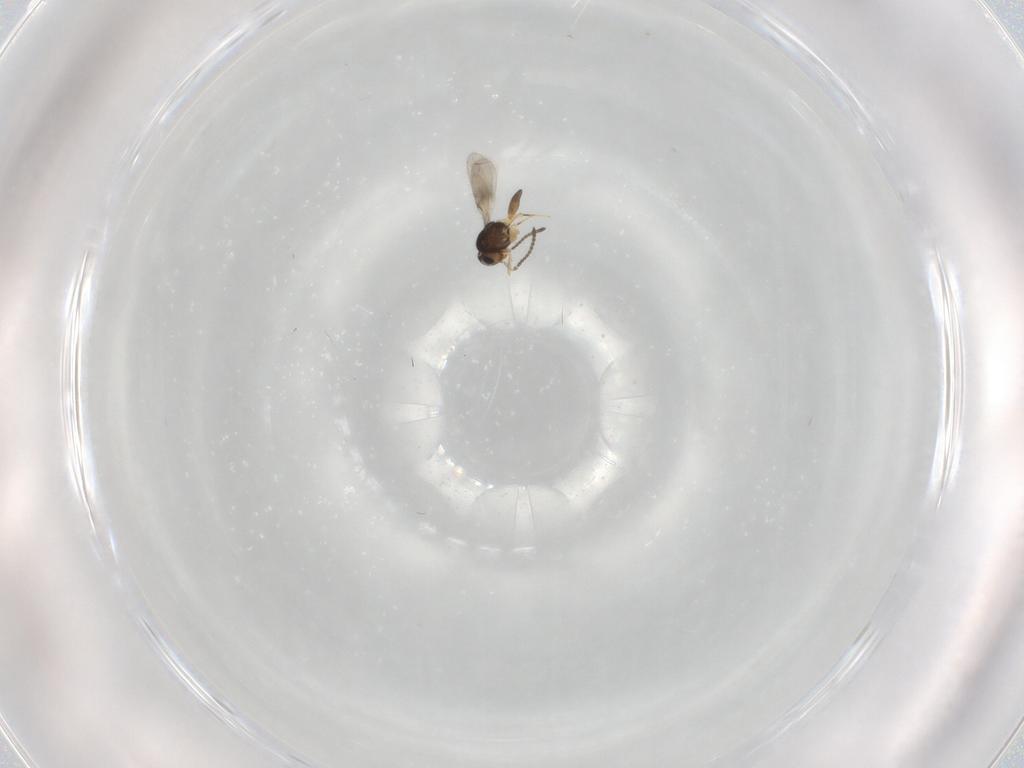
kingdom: Animalia
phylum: Arthropoda
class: Insecta
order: Hymenoptera
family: Scelionidae
